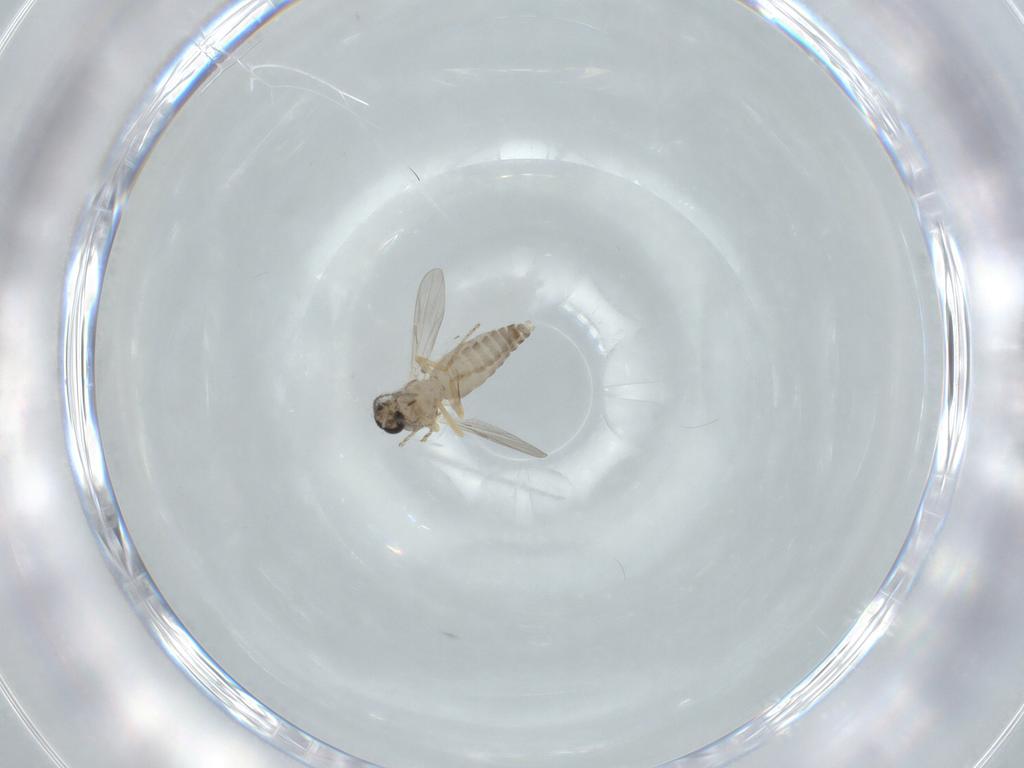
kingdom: Animalia
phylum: Arthropoda
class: Insecta
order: Diptera
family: Ceratopogonidae
